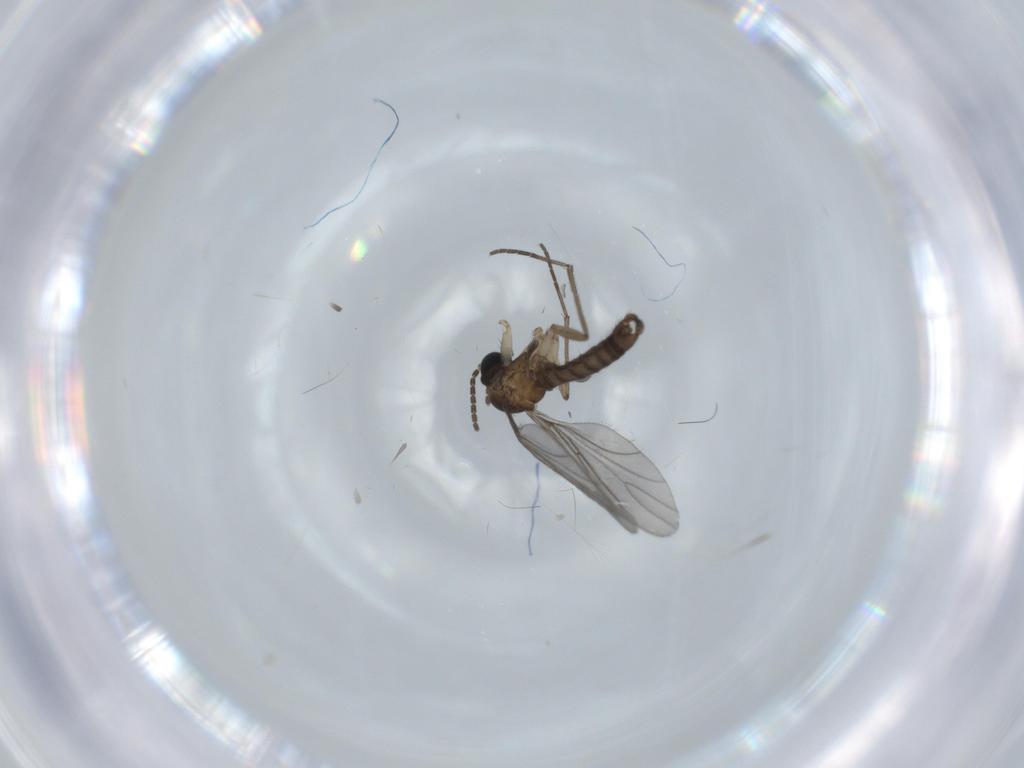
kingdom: Animalia
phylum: Arthropoda
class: Insecta
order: Diptera
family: Sciaridae
